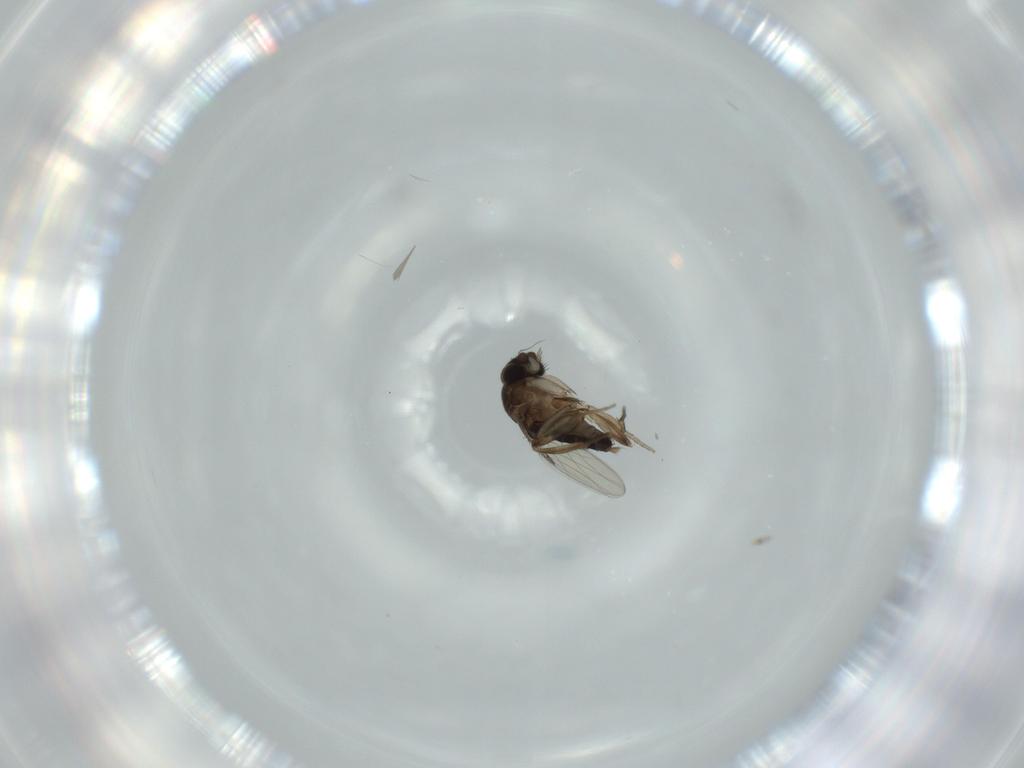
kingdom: Animalia
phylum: Arthropoda
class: Insecta
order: Diptera
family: Phoridae
